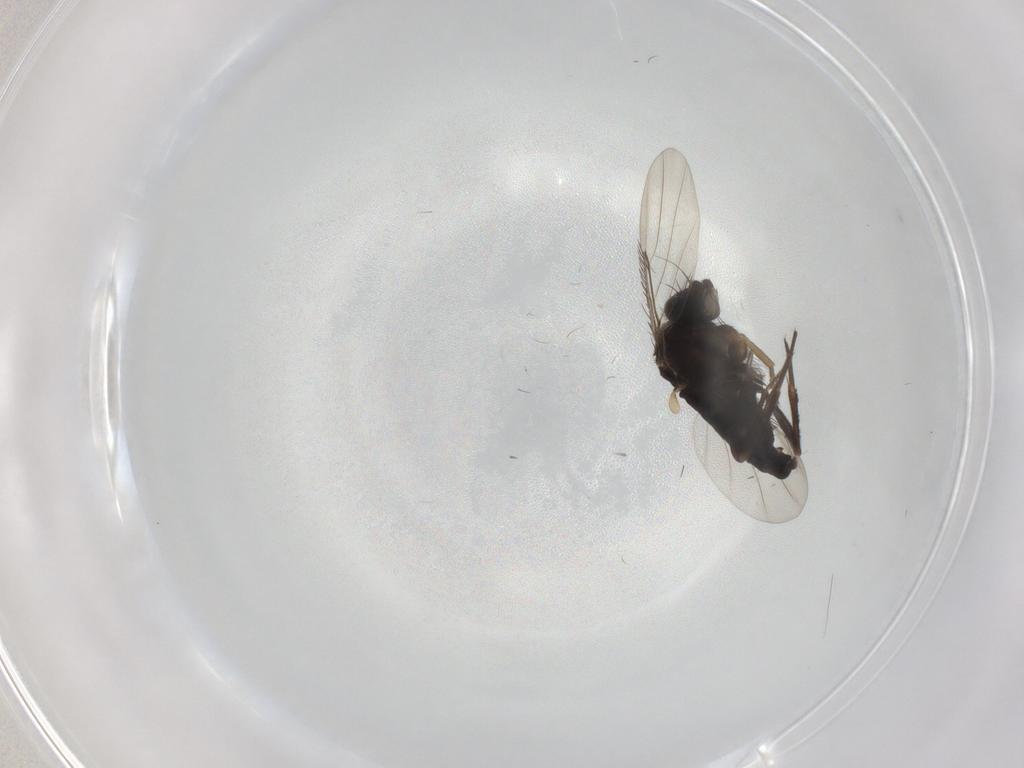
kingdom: Animalia
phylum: Arthropoda
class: Insecta
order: Diptera
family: Phoridae
